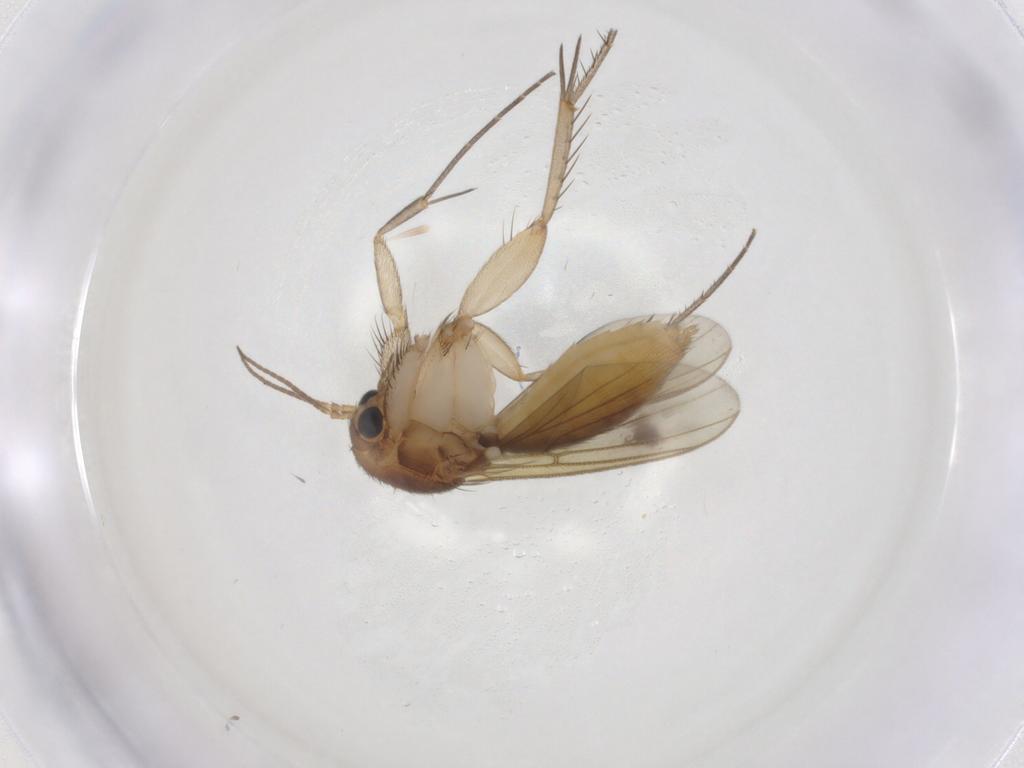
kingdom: Animalia
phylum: Arthropoda
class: Insecta
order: Diptera
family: Mycetophilidae
